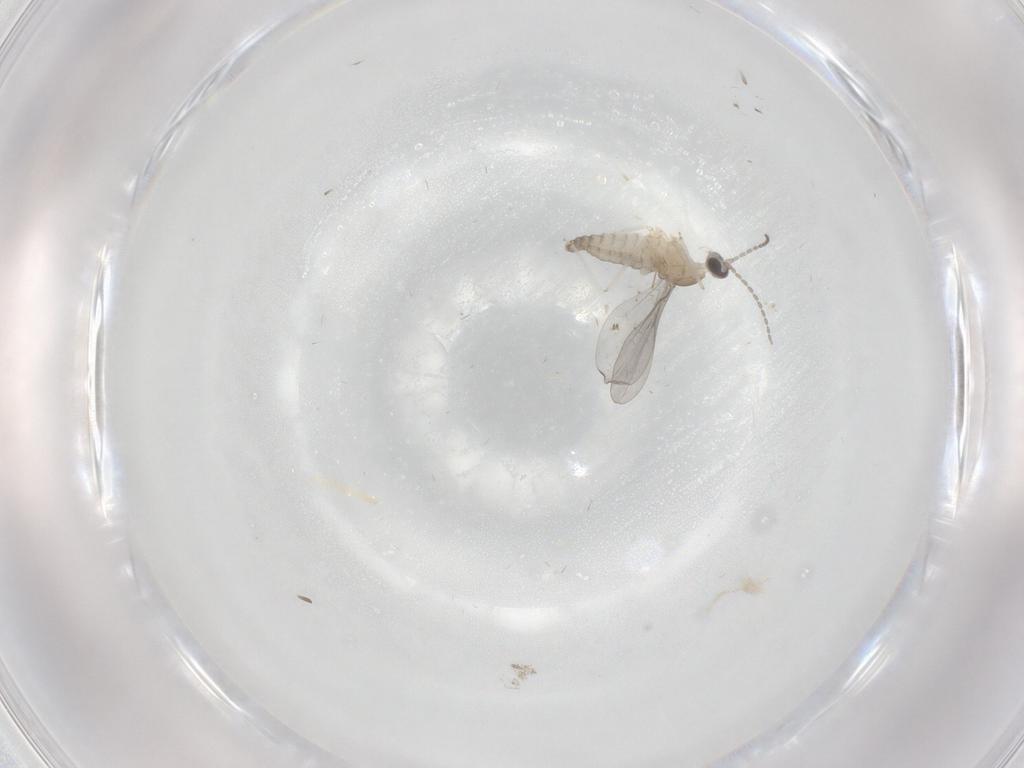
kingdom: Animalia
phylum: Arthropoda
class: Insecta
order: Diptera
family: Cecidomyiidae
